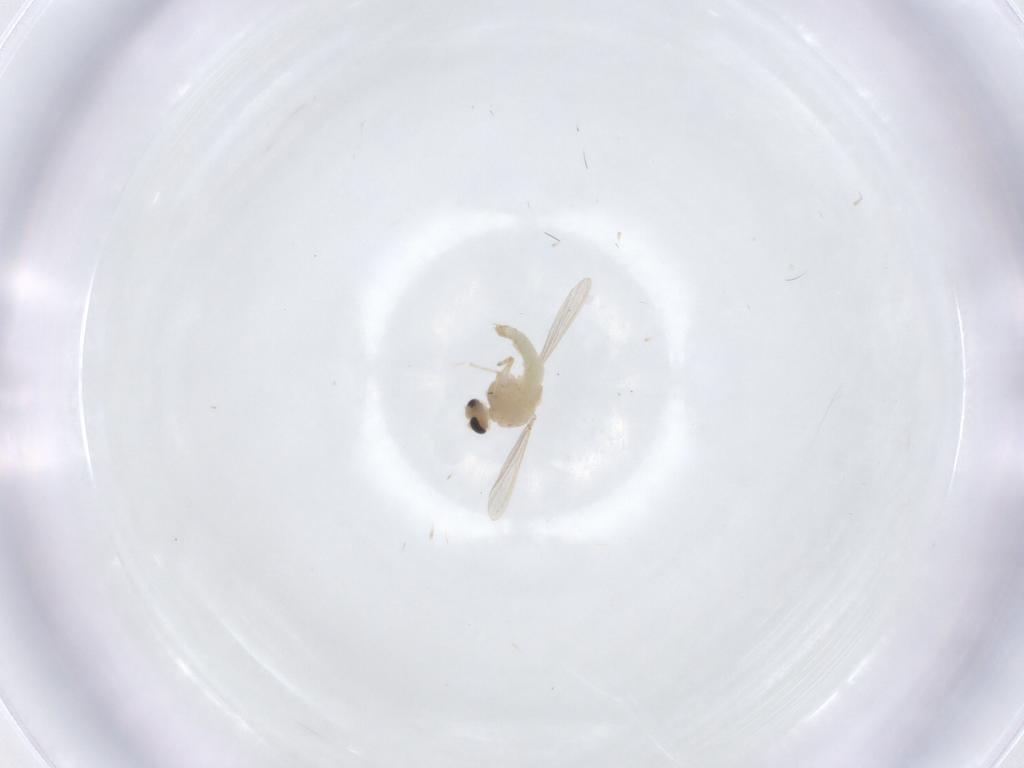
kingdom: Animalia
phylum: Arthropoda
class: Insecta
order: Diptera
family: Chironomidae
